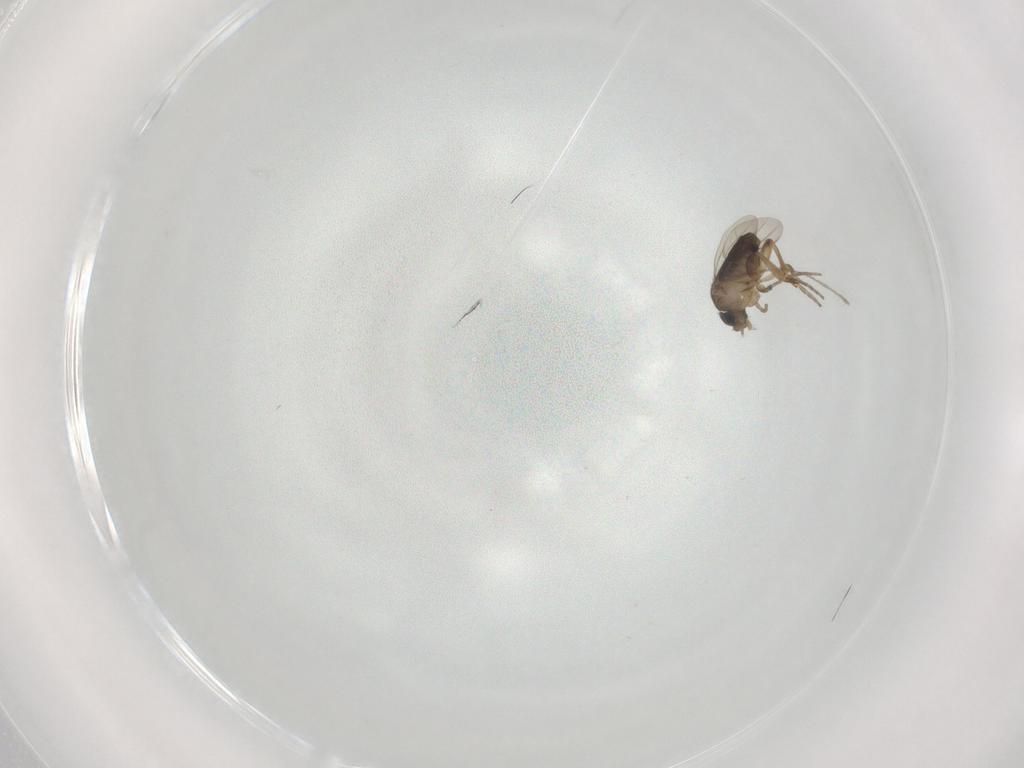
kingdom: Animalia
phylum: Arthropoda
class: Insecta
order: Diptera
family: Phoridae
